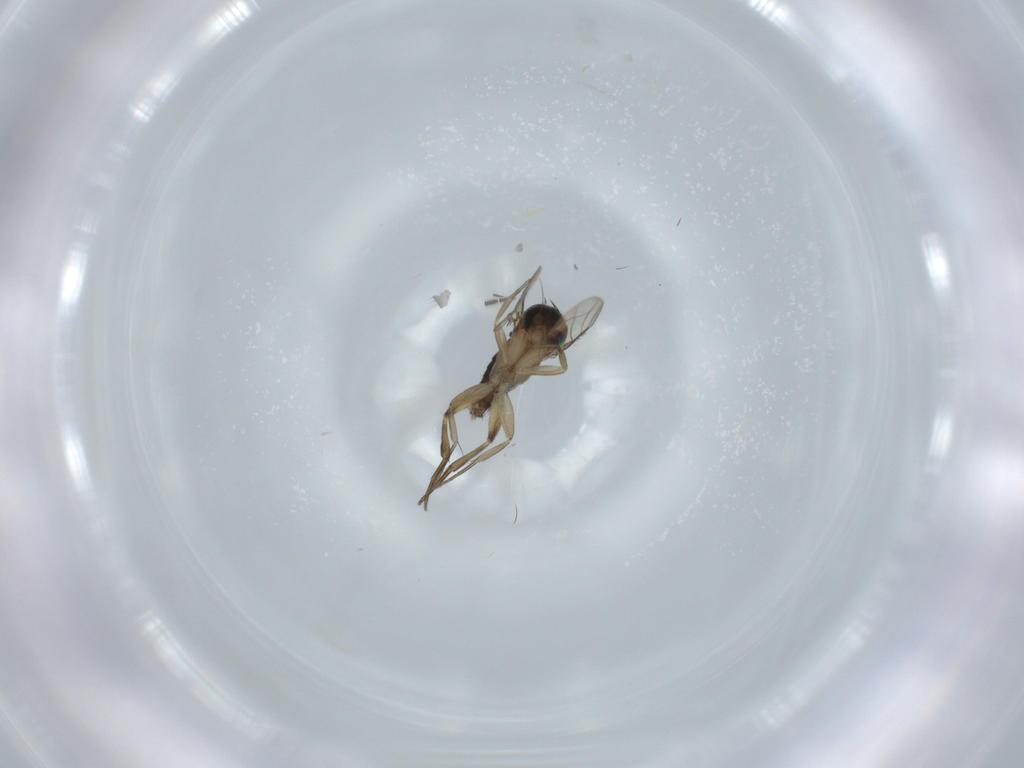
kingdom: Animalia
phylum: Arthropoda
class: Insecta
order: Diptera
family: Phoridae
